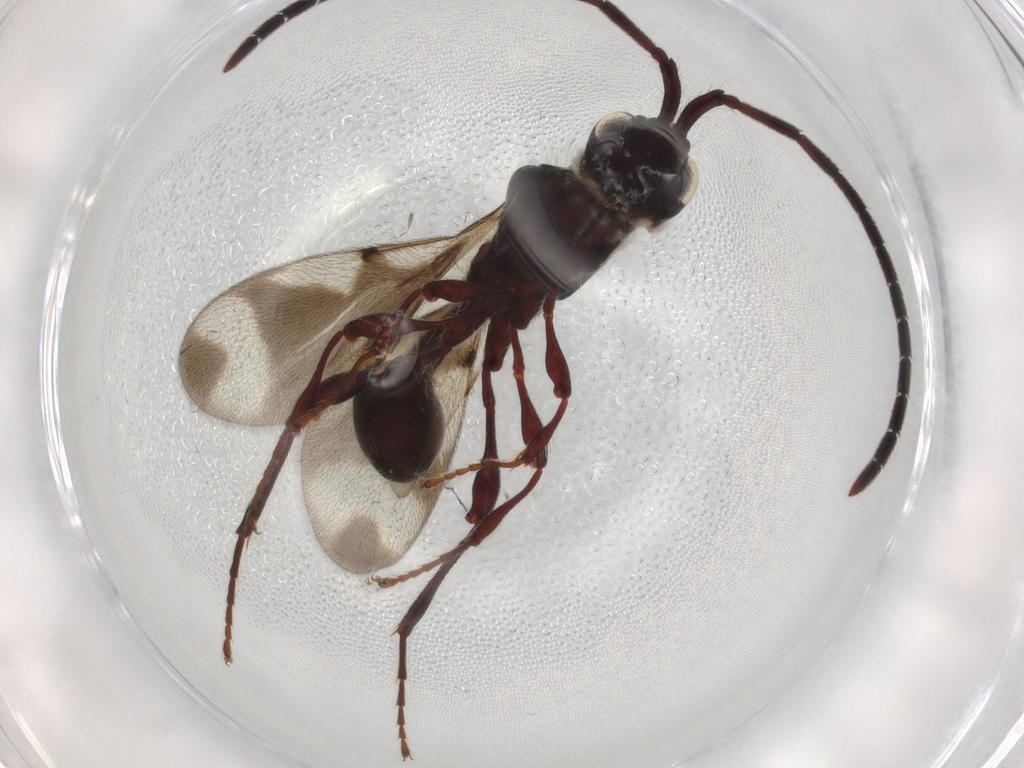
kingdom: Animalia
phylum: Arthropoda
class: Insecta
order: Hymenoptera
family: Diapriidae
